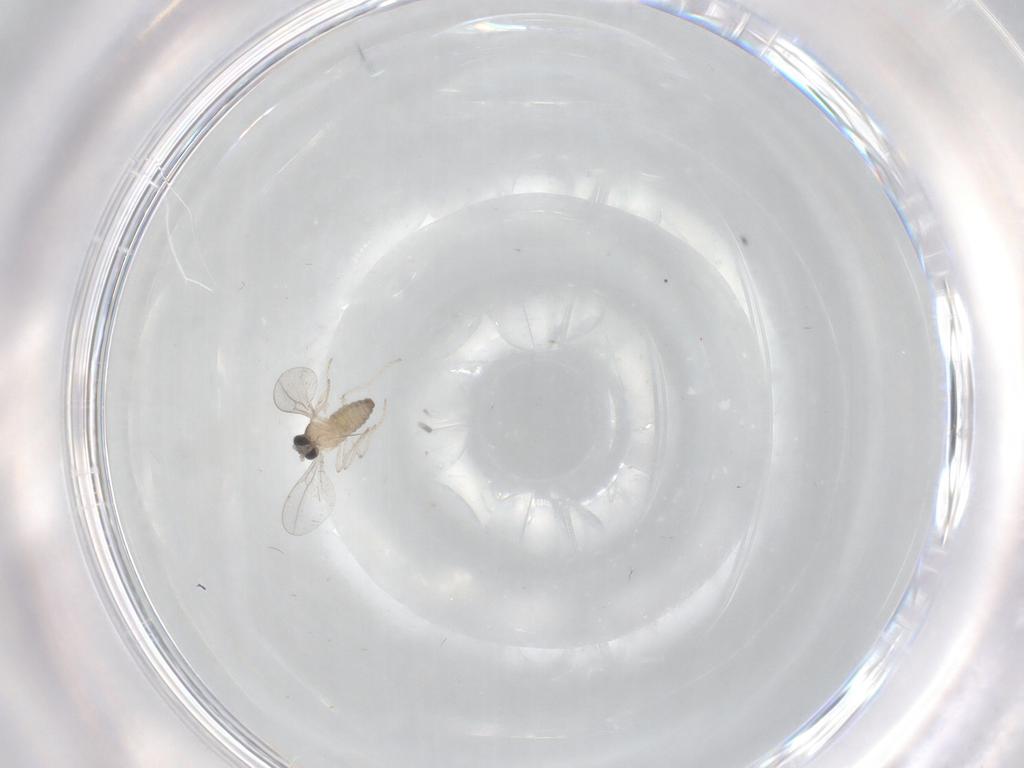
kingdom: Animalia
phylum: Arthropoda
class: Insecta
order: Diptera
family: Cecidomyiidae
